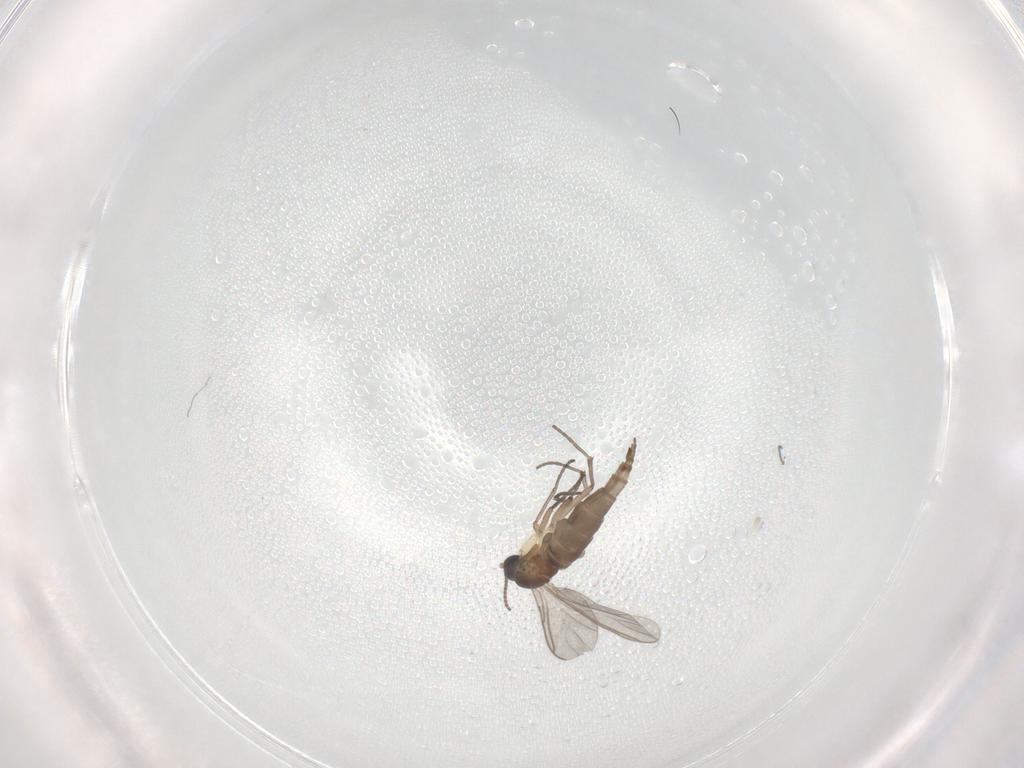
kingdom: Animalia
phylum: Arthropoda
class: Insecta
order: Diptera
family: Sciaridae
